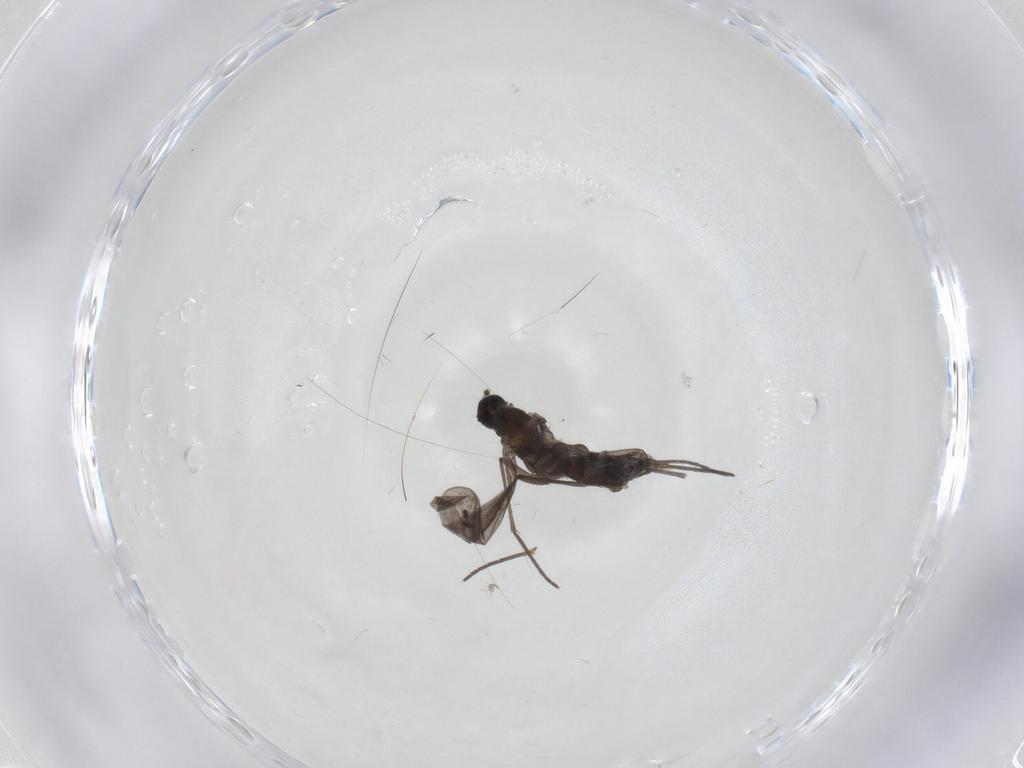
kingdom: Animalia
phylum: Arthropoda
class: Insecta
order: Diptera
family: Sciaridae
